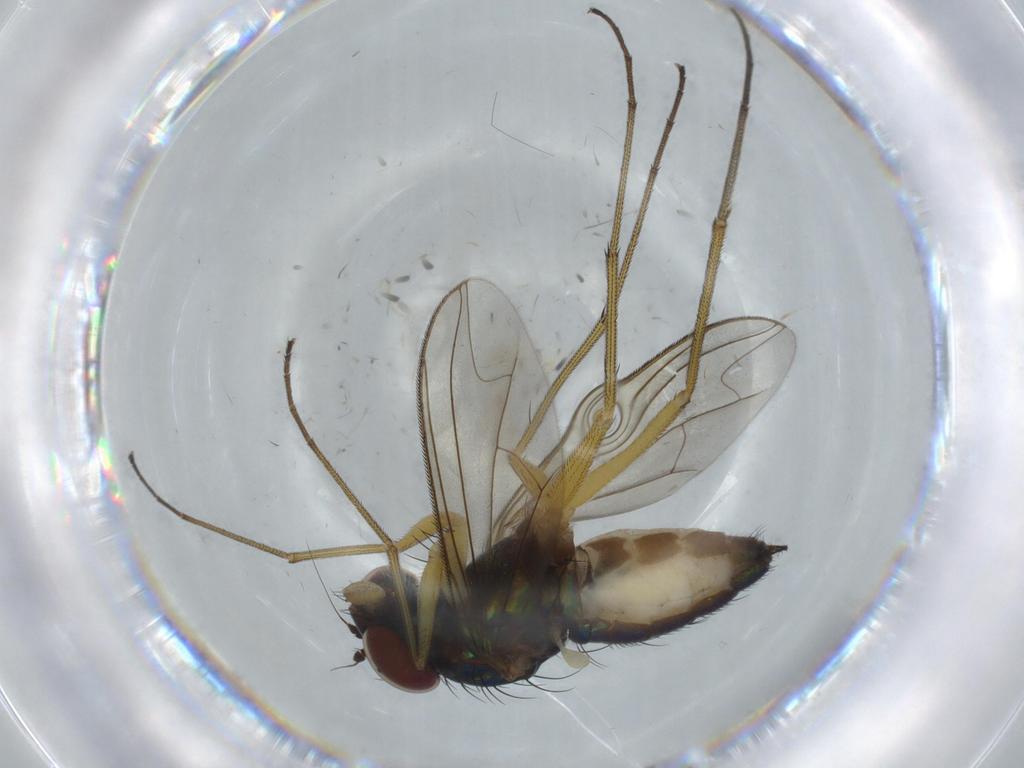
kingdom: Animalia
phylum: Arthropoda
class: Insecta
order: Diptera
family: Dolichopodidae
